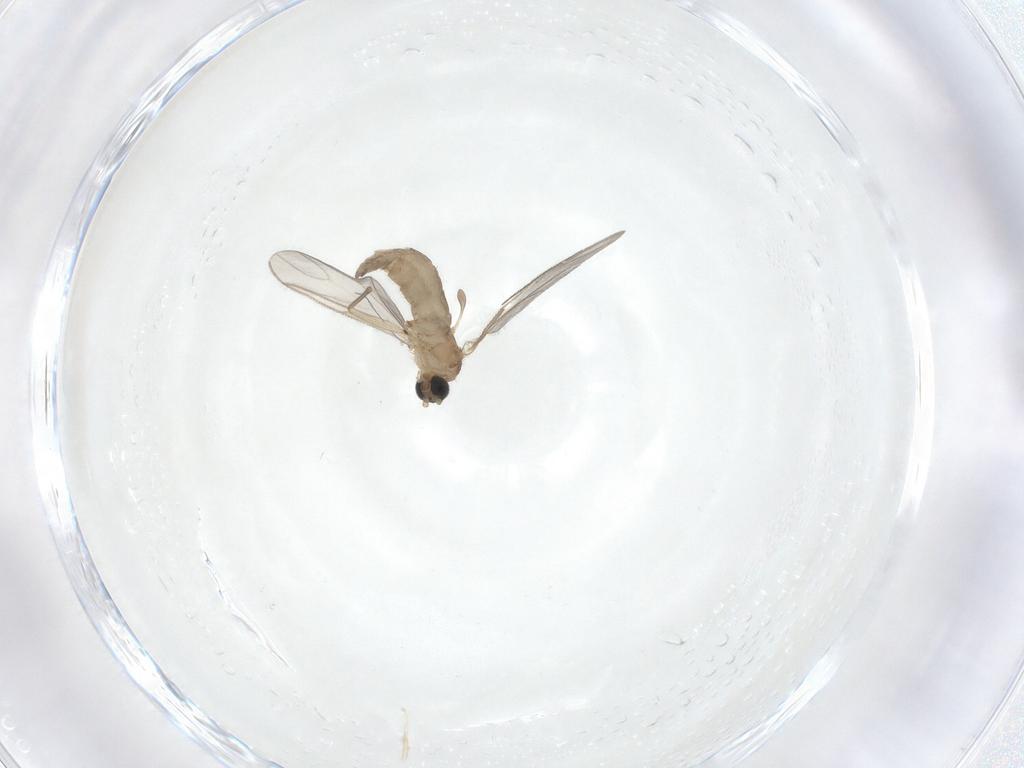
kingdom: Animalia
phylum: Arthropoda
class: Insecta
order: Diptera
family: Sciaridae
